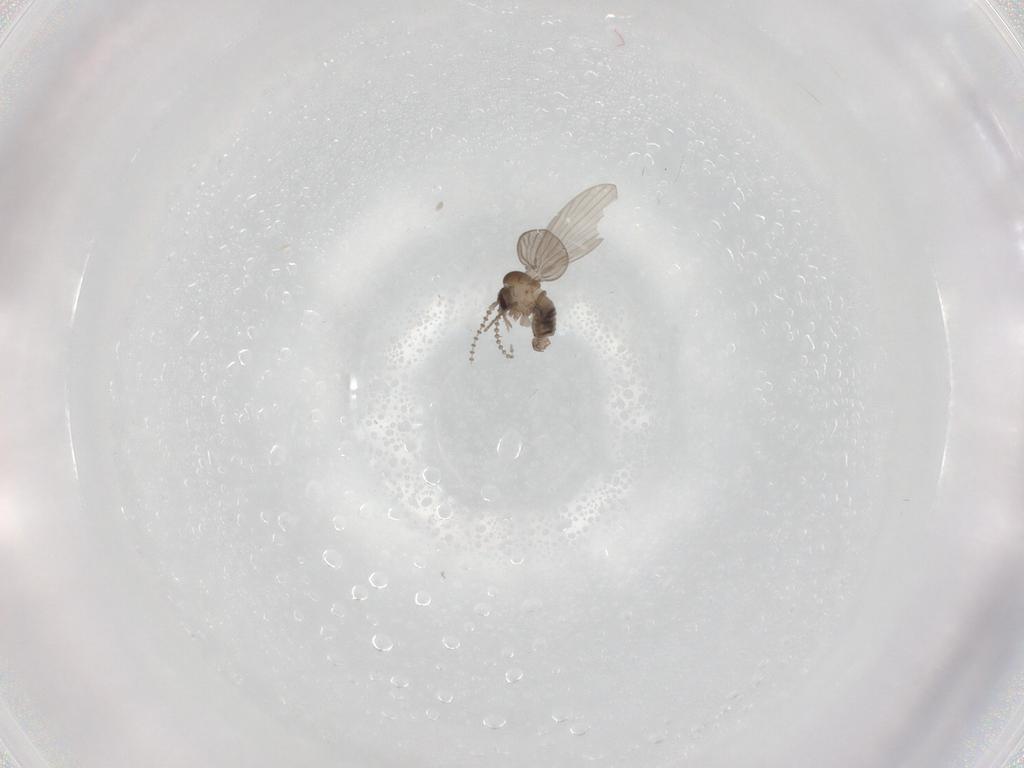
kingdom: Animalia
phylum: Arthropoda
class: Insecta
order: Diptera
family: Psychodidae
